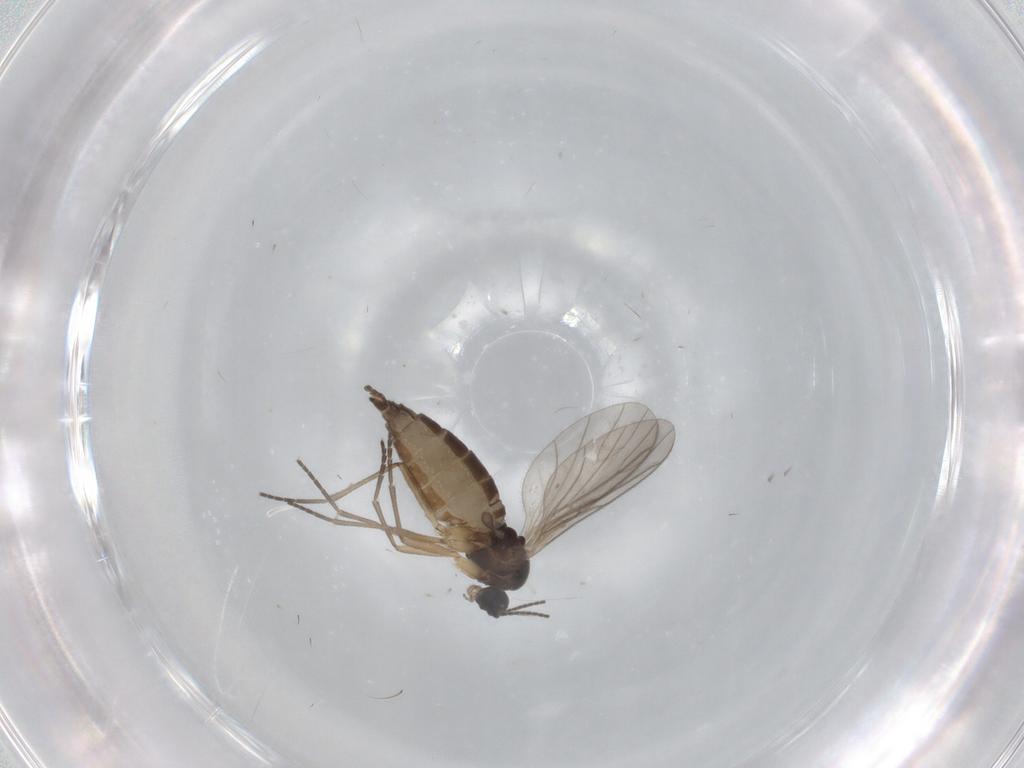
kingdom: Animalia
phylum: Arthropoda
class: Insecta
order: Diptera
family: Sciaridae
